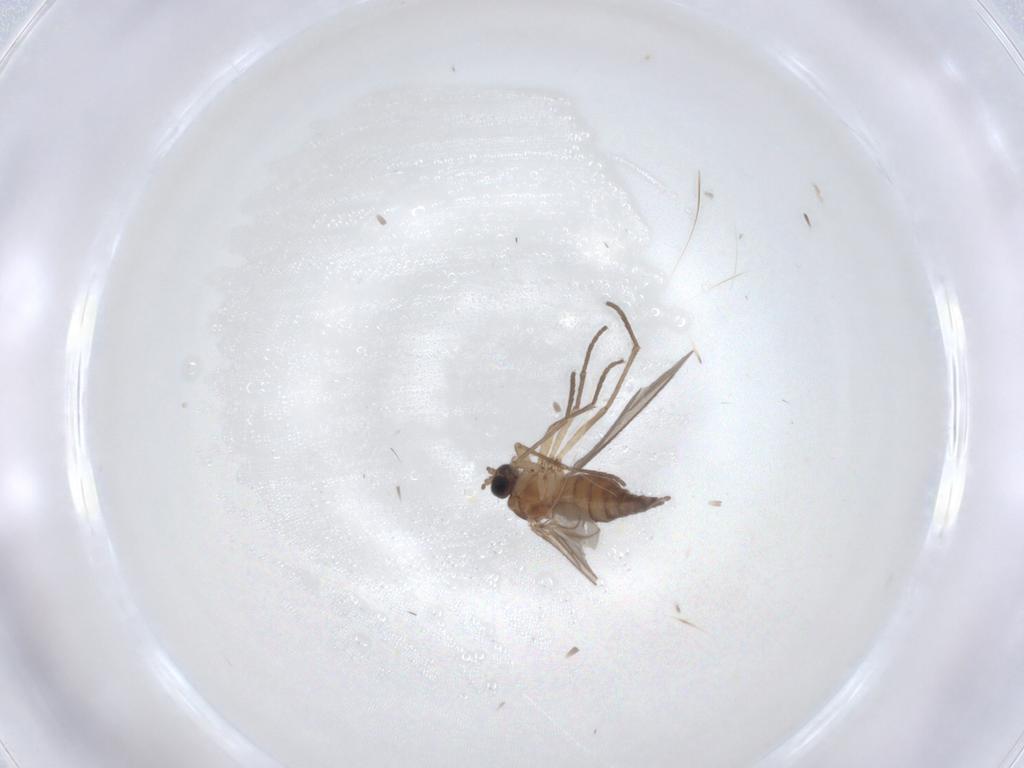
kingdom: Animalia
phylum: Arthropoda
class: Insecta
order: Diptera
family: Sciaridae
